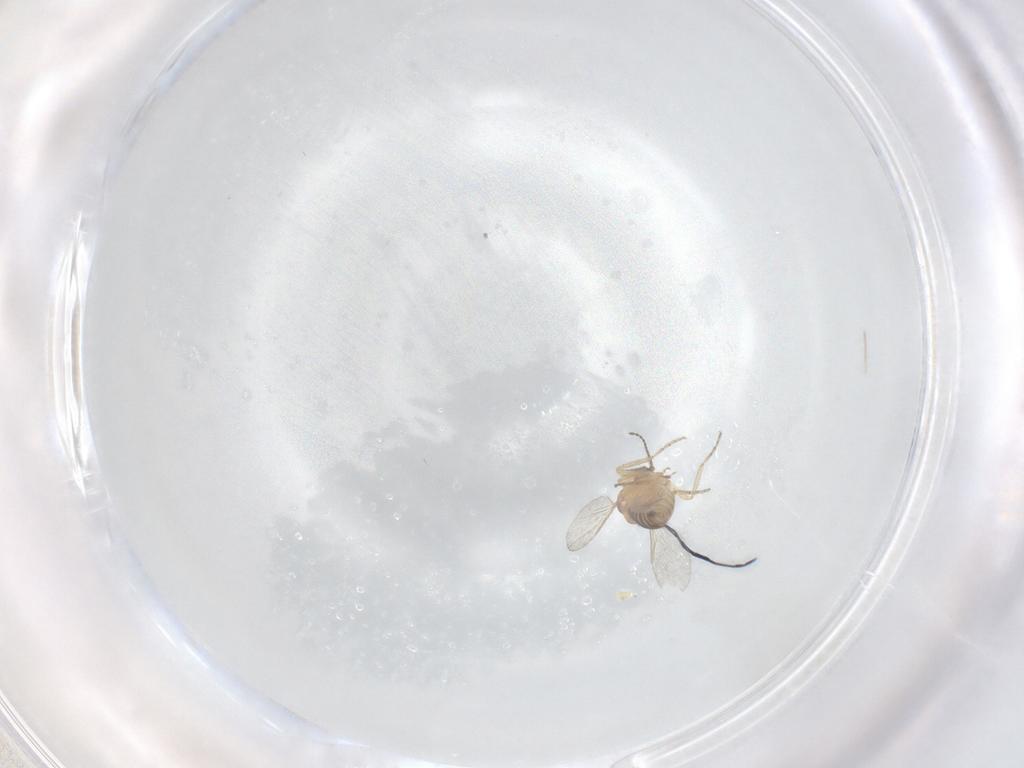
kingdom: Animalia
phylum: Arthropoda
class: Insecta
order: Diptera
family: Ceratopogonidae
